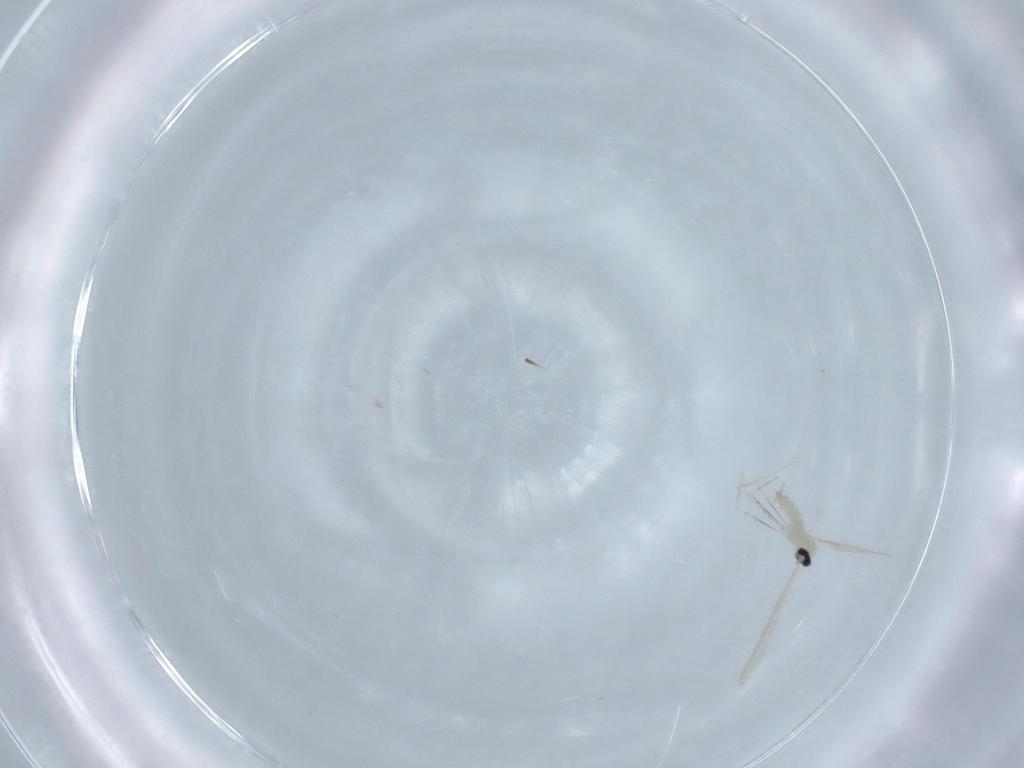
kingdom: Animalia
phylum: Arthropoda
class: Insecta
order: Diptera
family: Cecidomyiidae
